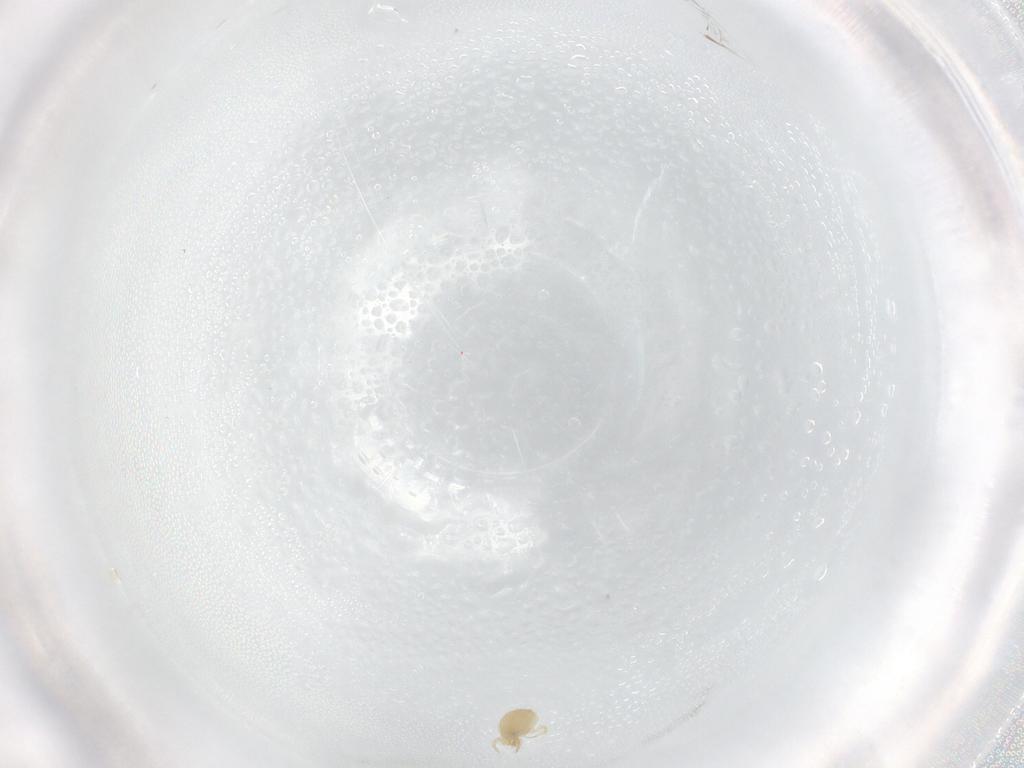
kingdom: Animalia
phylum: Arthropoda
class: Arachnida
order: Mesostigmata
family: Phytoseiidae
